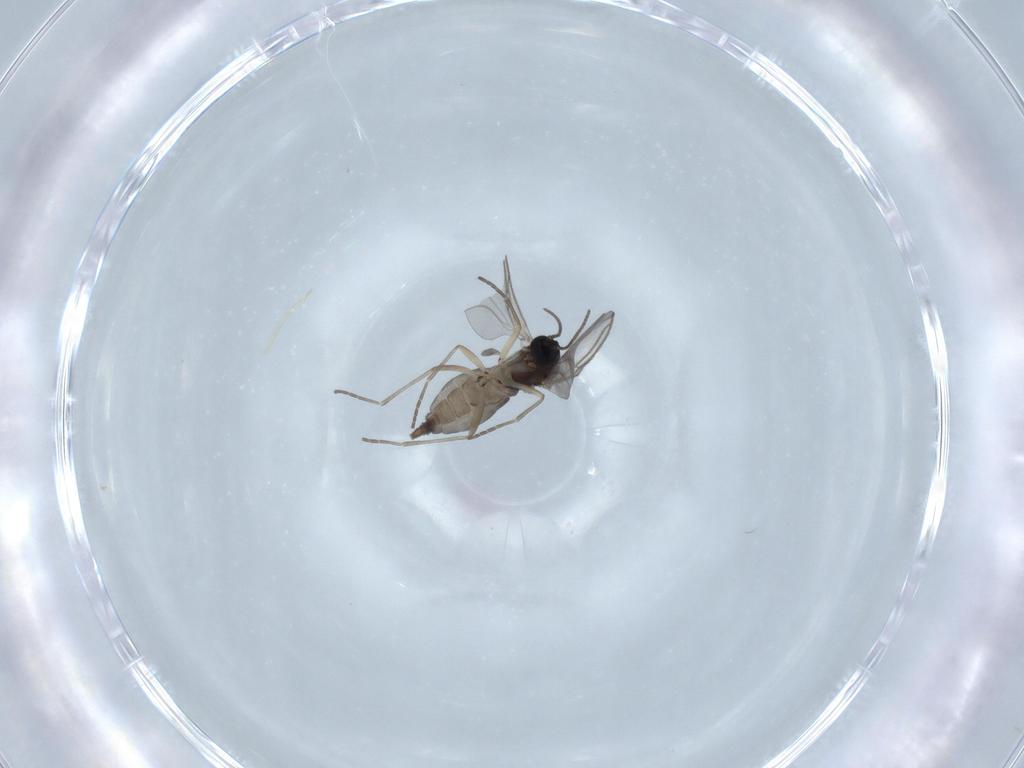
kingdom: Animalia
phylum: Arthropoda
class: Insecta
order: Diptera
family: Sciaridae
